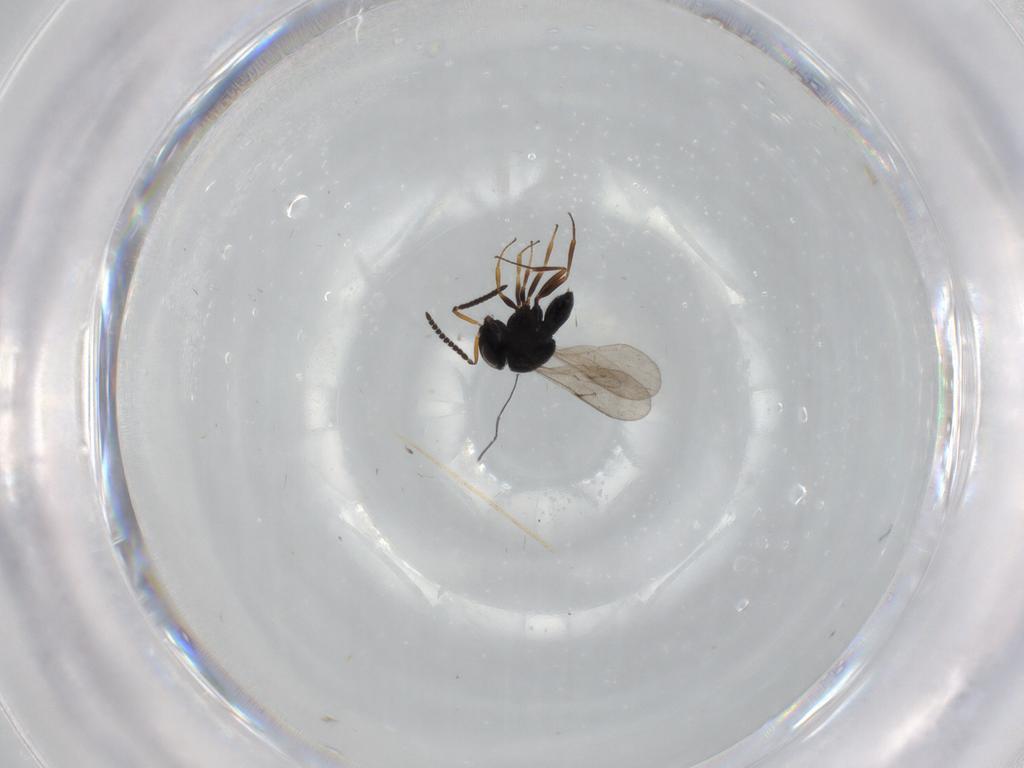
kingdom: Animalia
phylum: Arthropoda
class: Insecta
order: Hymenoptera
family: Scelionidae
